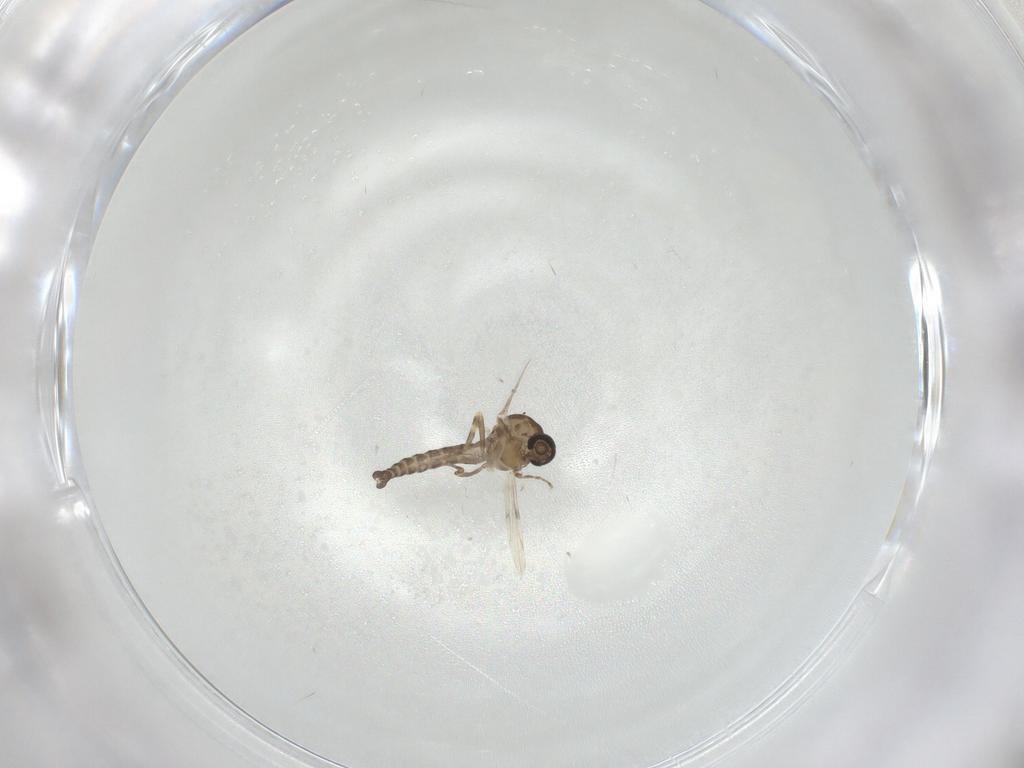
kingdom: Animalia
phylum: Arthropoda
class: Insecta
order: Diptera
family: Ceratopogonidae
